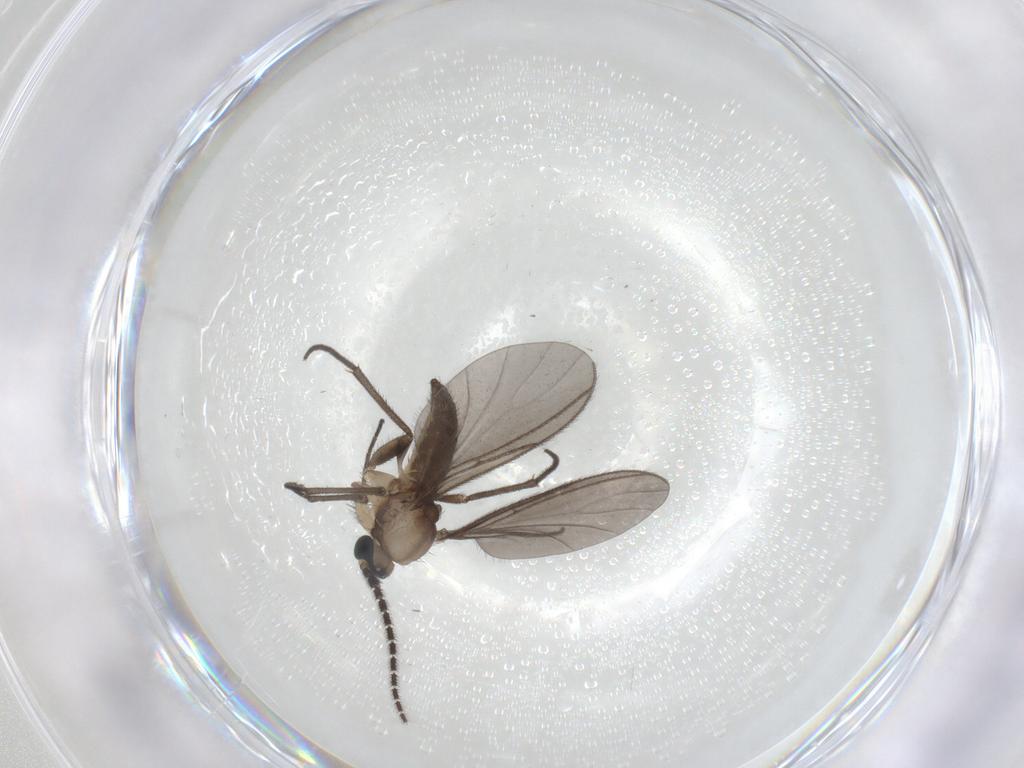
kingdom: Animalia
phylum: Arthropoda
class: Insecta
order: Diptera
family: Sciaridae
